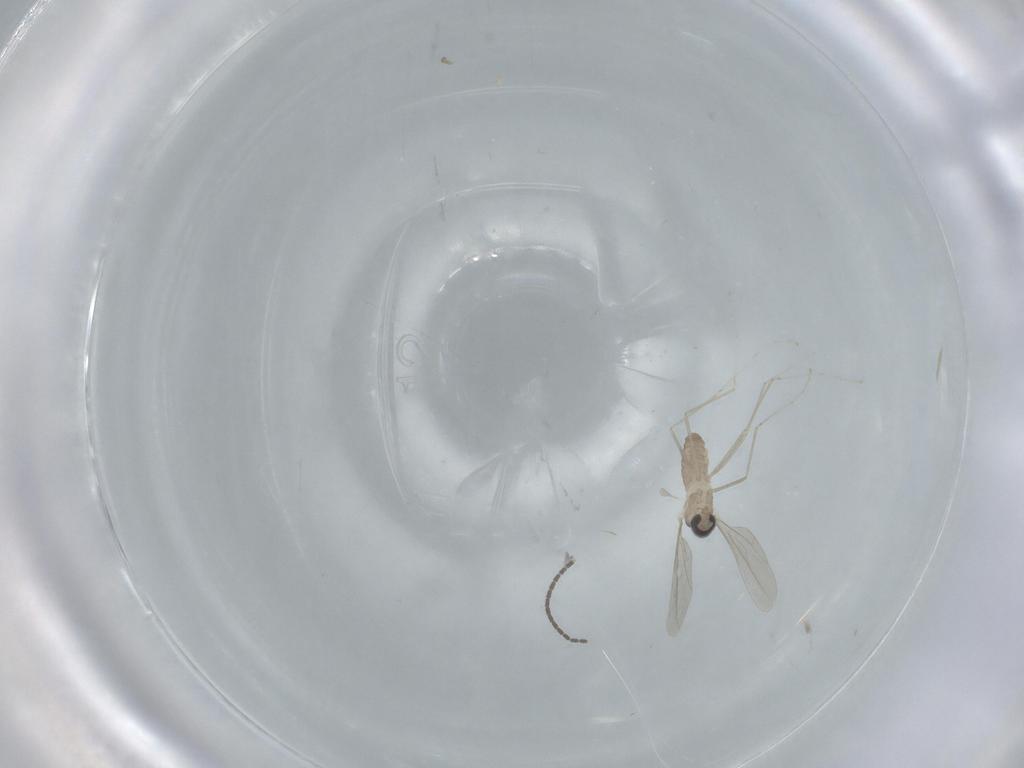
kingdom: Animalia
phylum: Arthropoda
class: Insecta
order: Diptera
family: Phoridae
